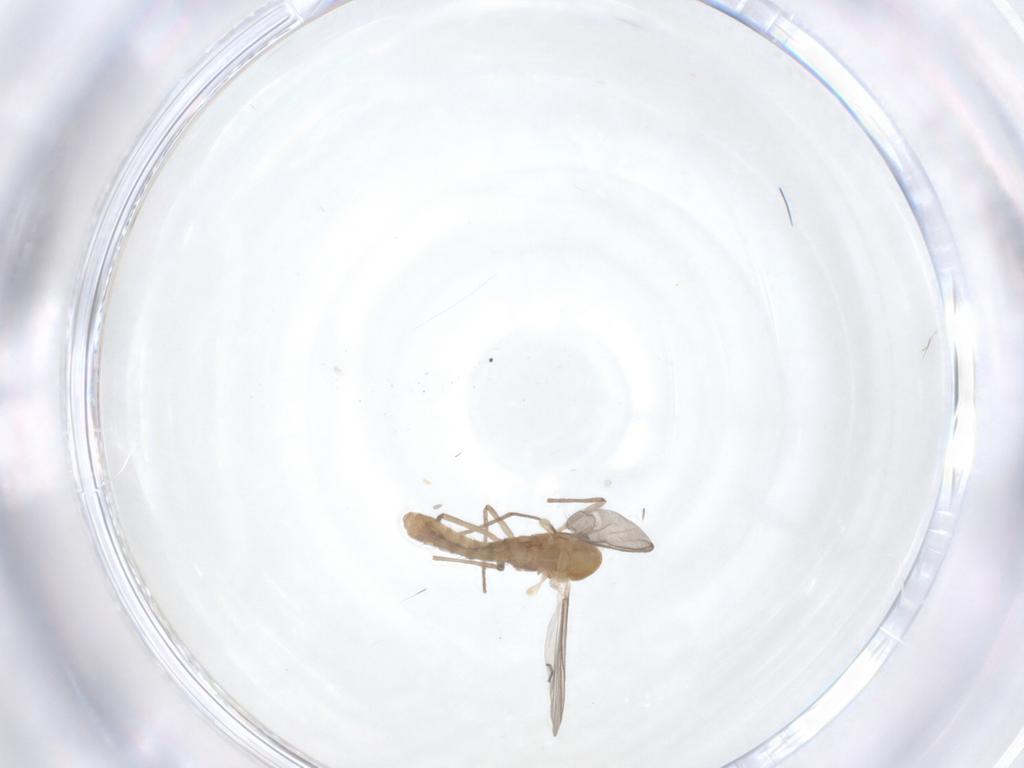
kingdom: Animalia
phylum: Arthropoda
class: Insecta
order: Diptera
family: Chironomidae
